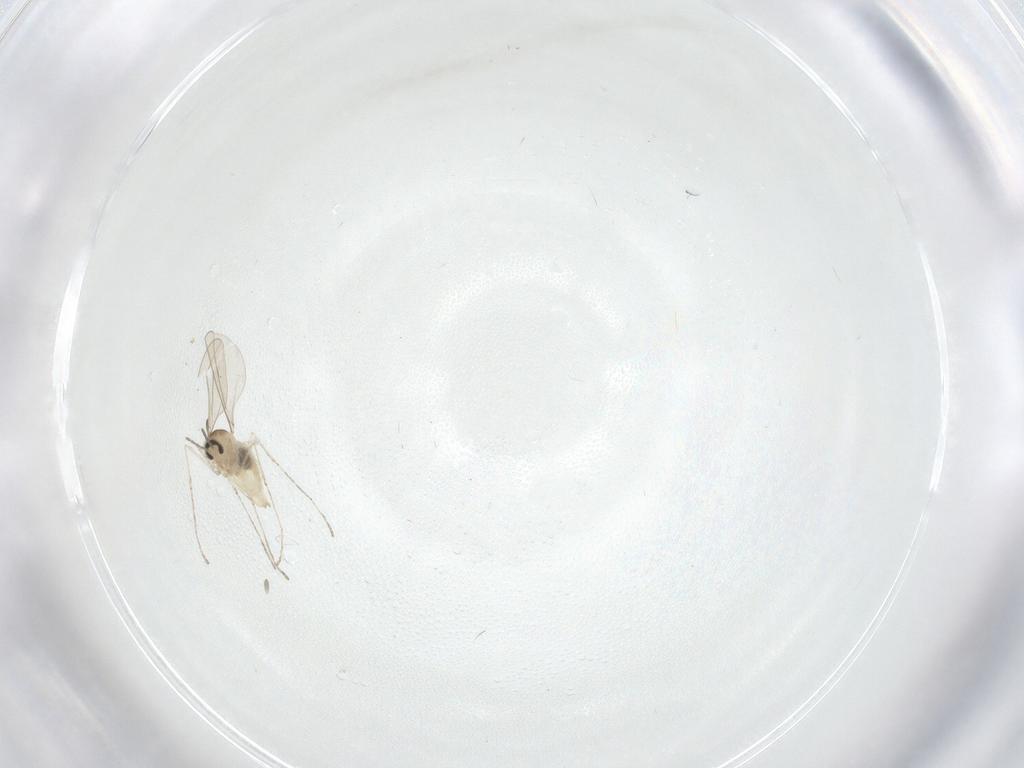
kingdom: Animalia
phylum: Arthropoda
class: Insecta
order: Diptera
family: Cecidomyiidae
